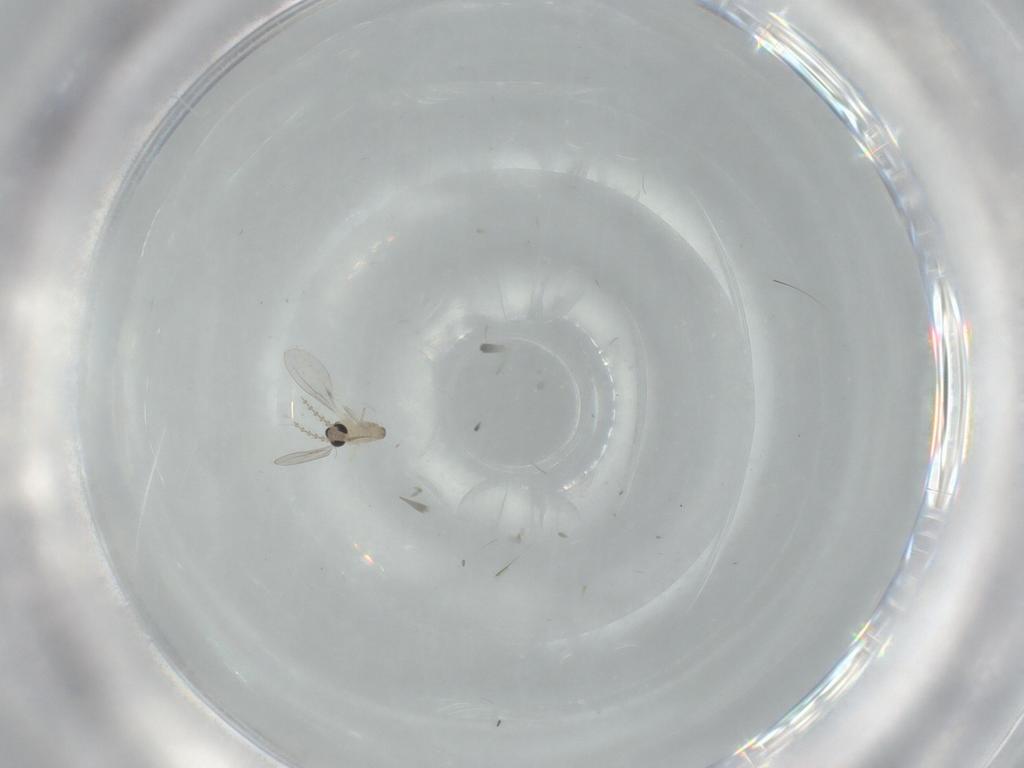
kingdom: Animalia
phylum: Arthropoda
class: Insecta
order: Diptera
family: Cecidomyiidae
